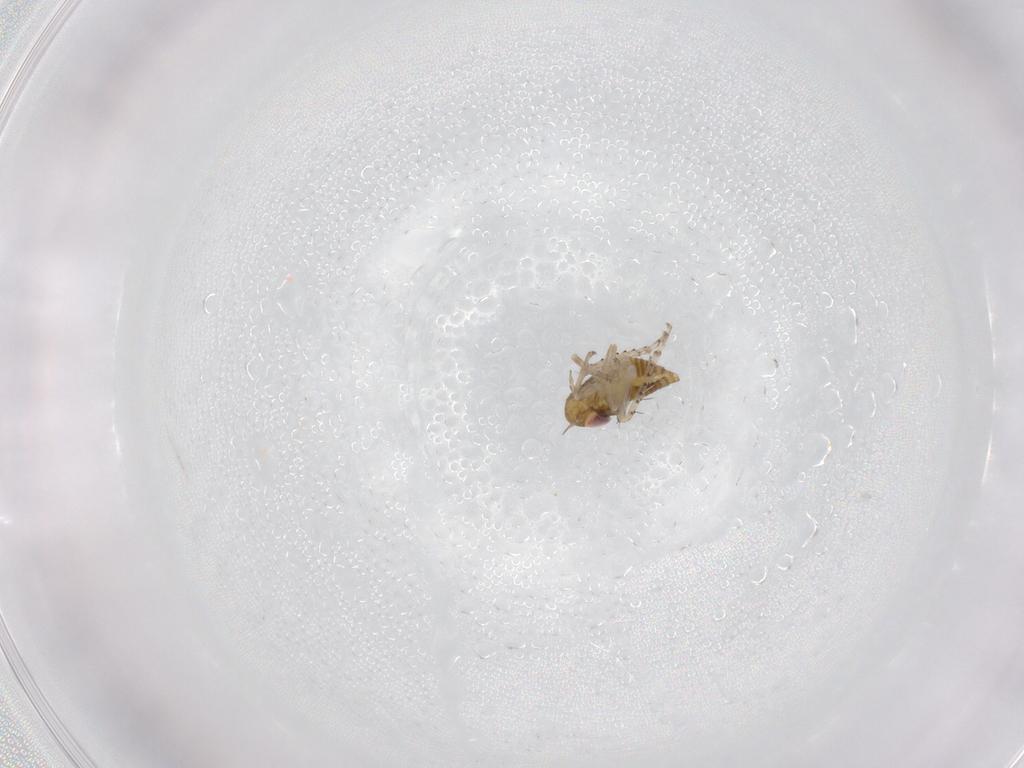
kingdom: Animalia
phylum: Arthropoda
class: Insecta
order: Hemiptera
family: Cicadellidae
